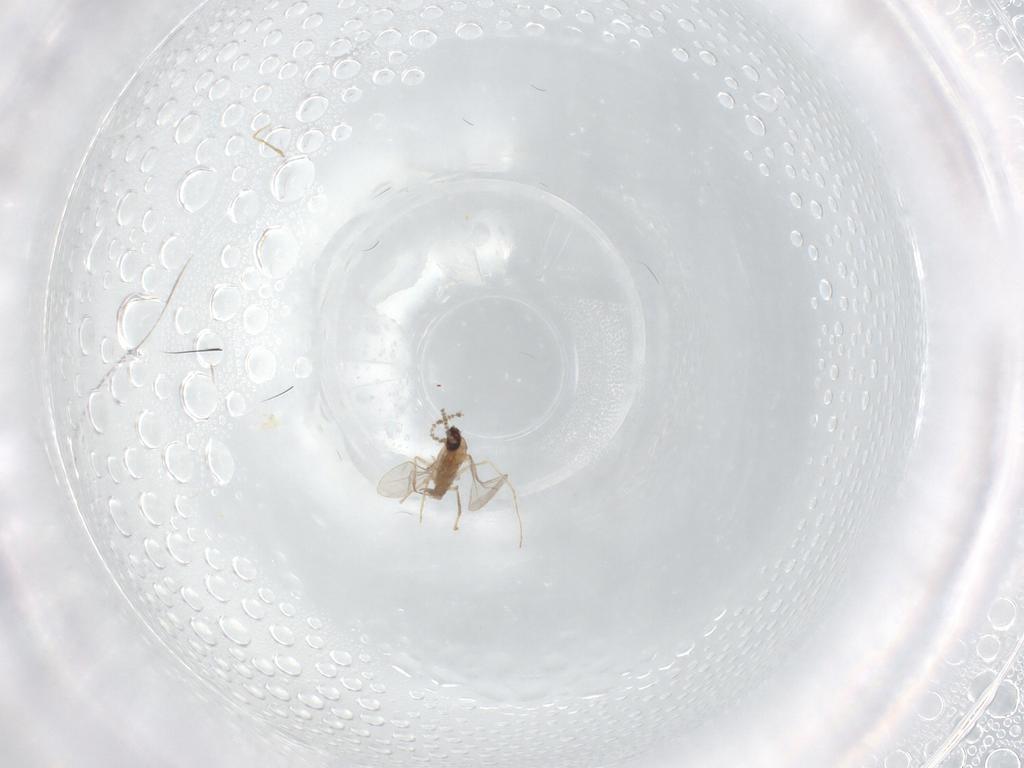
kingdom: Animalia
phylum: Arthropoda
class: Insecta
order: Diptera
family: Cecidomyiidae
